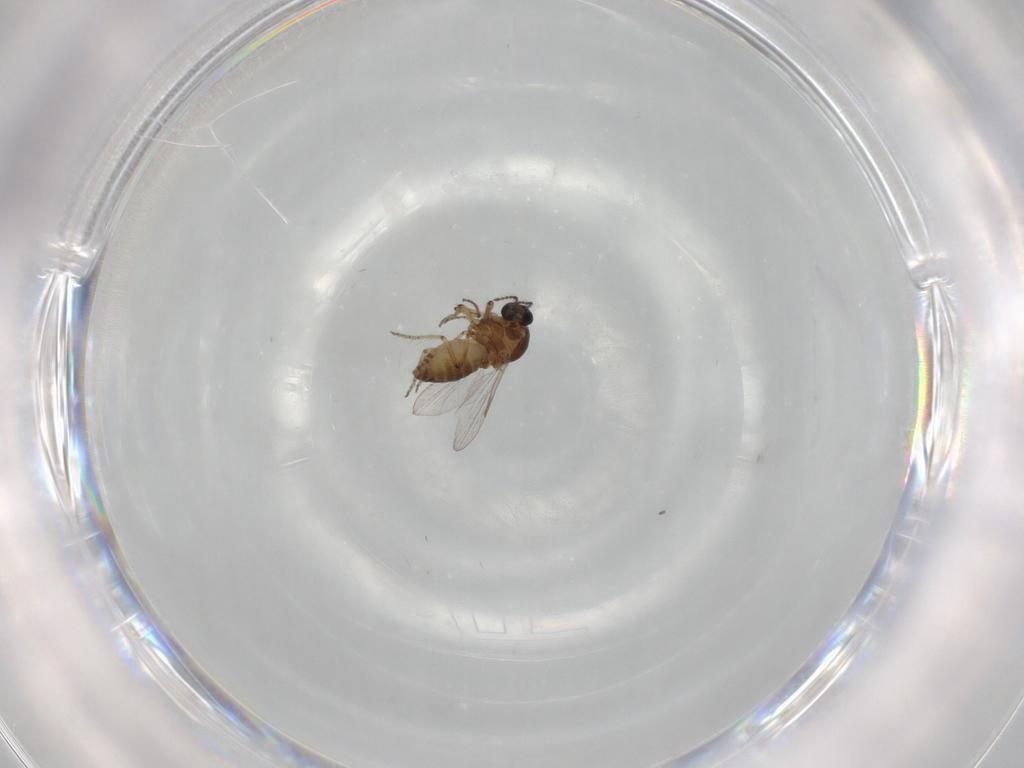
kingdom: Animalia
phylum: Arthropoda
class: Insecta
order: Diptera
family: Ceratopogonidae
